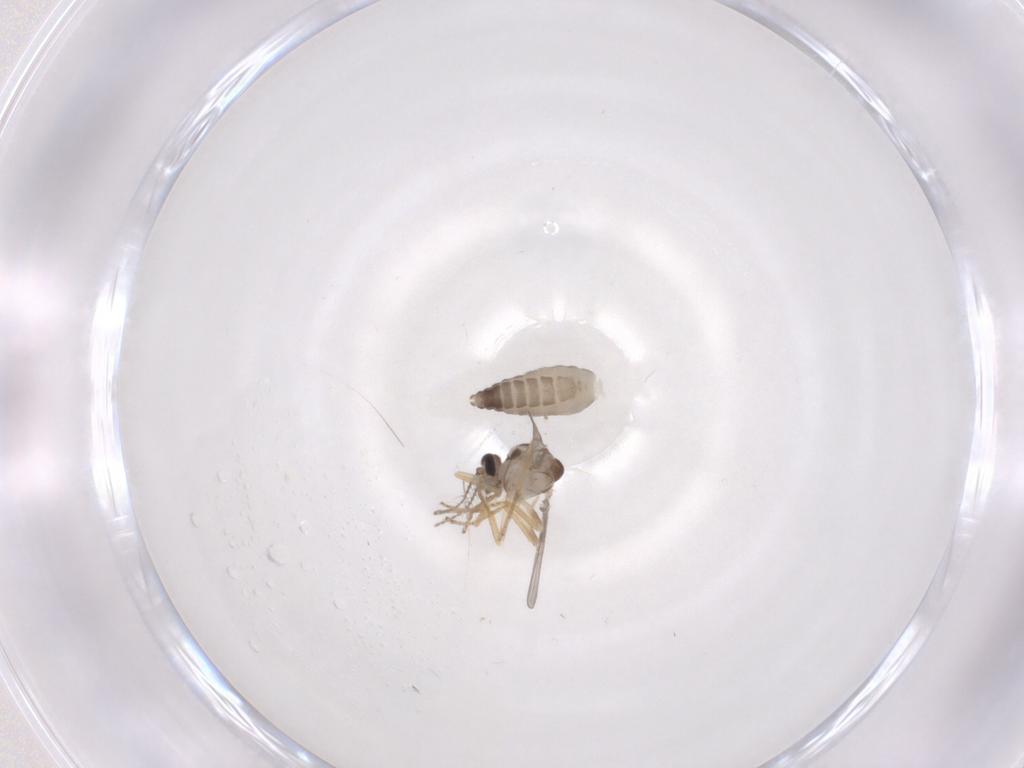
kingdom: Animalia
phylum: Arthropoda
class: Insecta
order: Diptera
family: Ceratopogonidae
